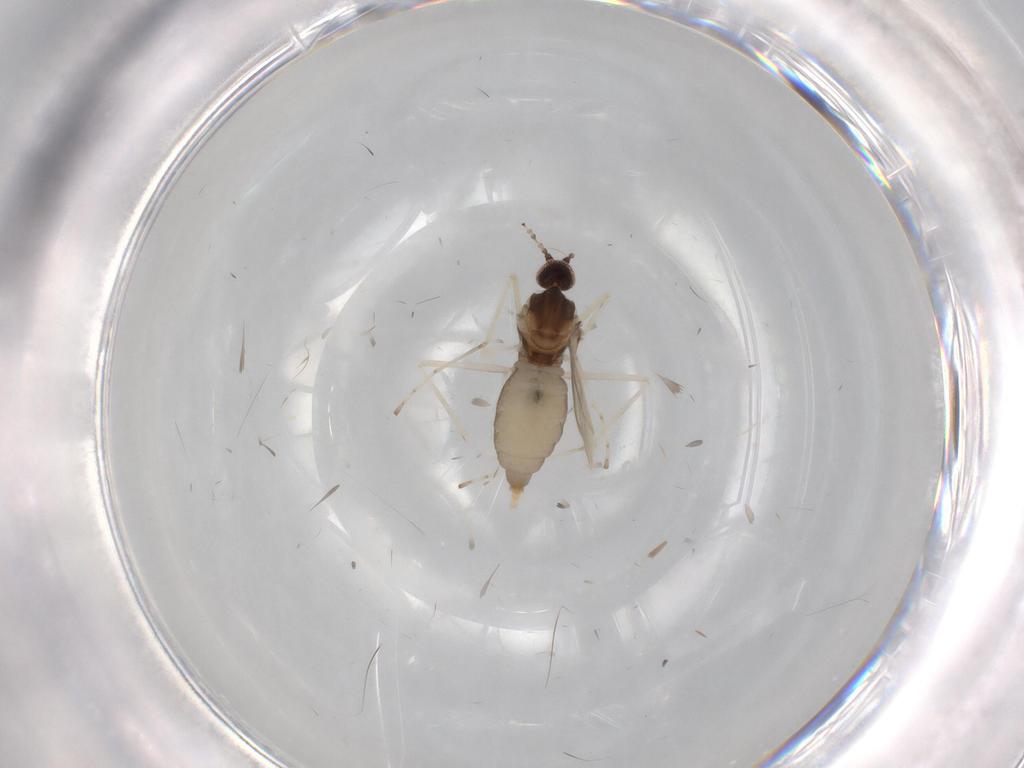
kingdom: Animalia
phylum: Arthropoda
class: Insecta
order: Diptera
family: Cecidomyiidae
